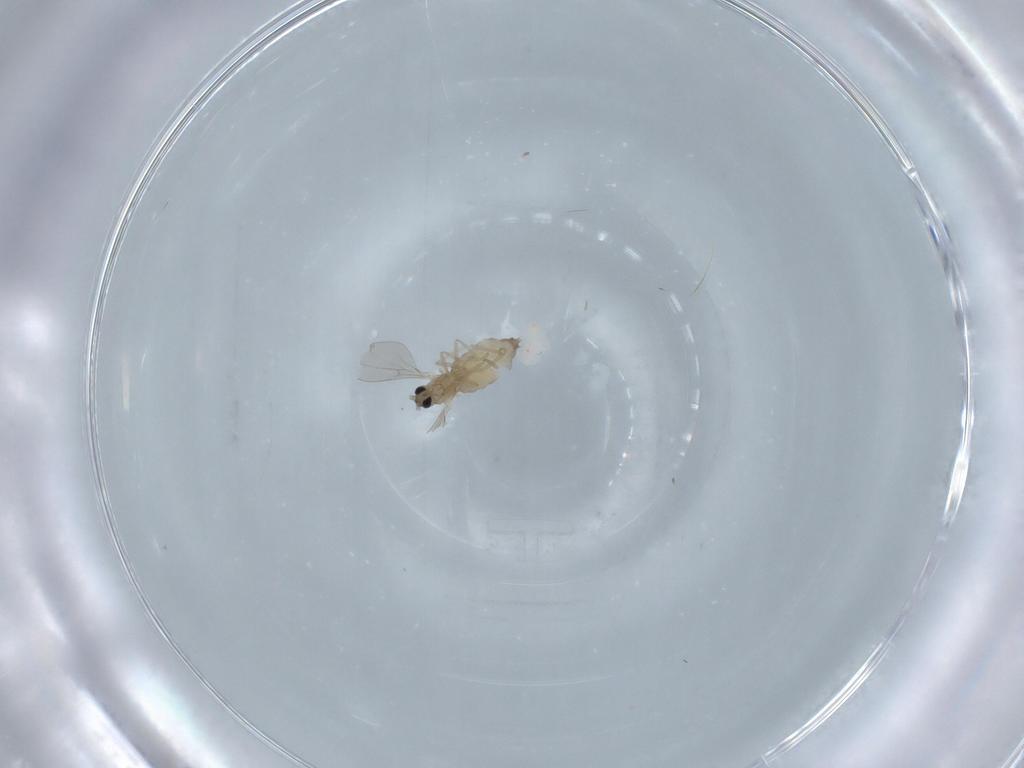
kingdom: Animalia
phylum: Arthropoda
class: Insecta
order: Diptera
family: Cecidomyiidae
